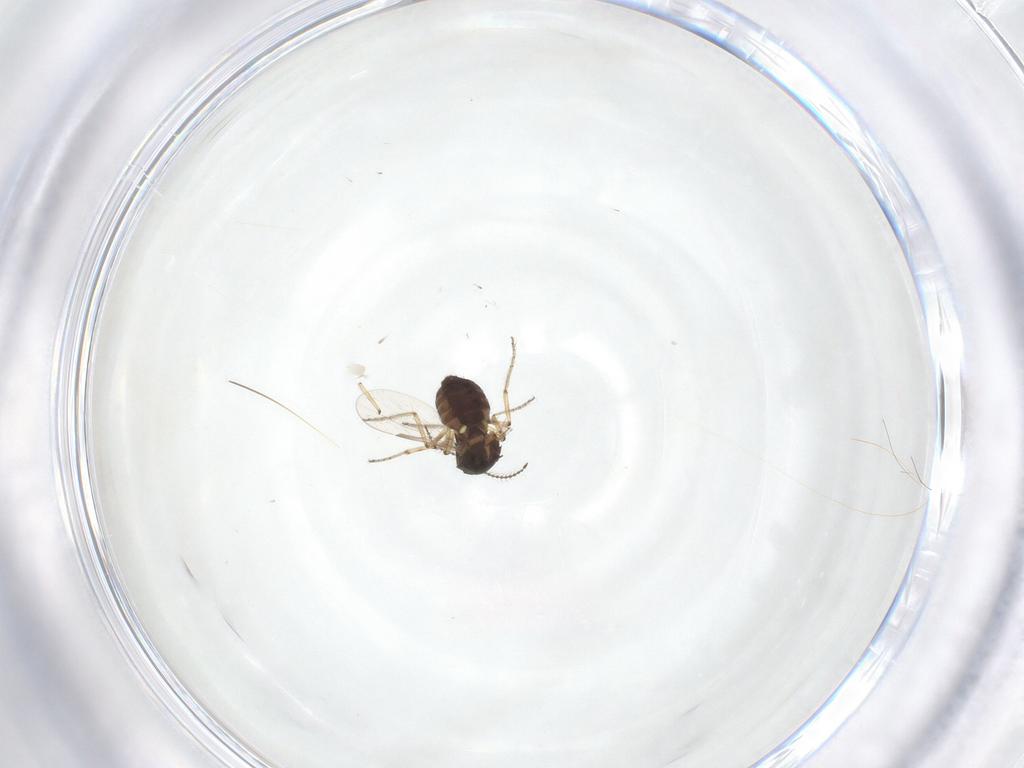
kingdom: Animalia
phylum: Arthropoda
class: Insecta
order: Diptera
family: Ceratopogonidae
